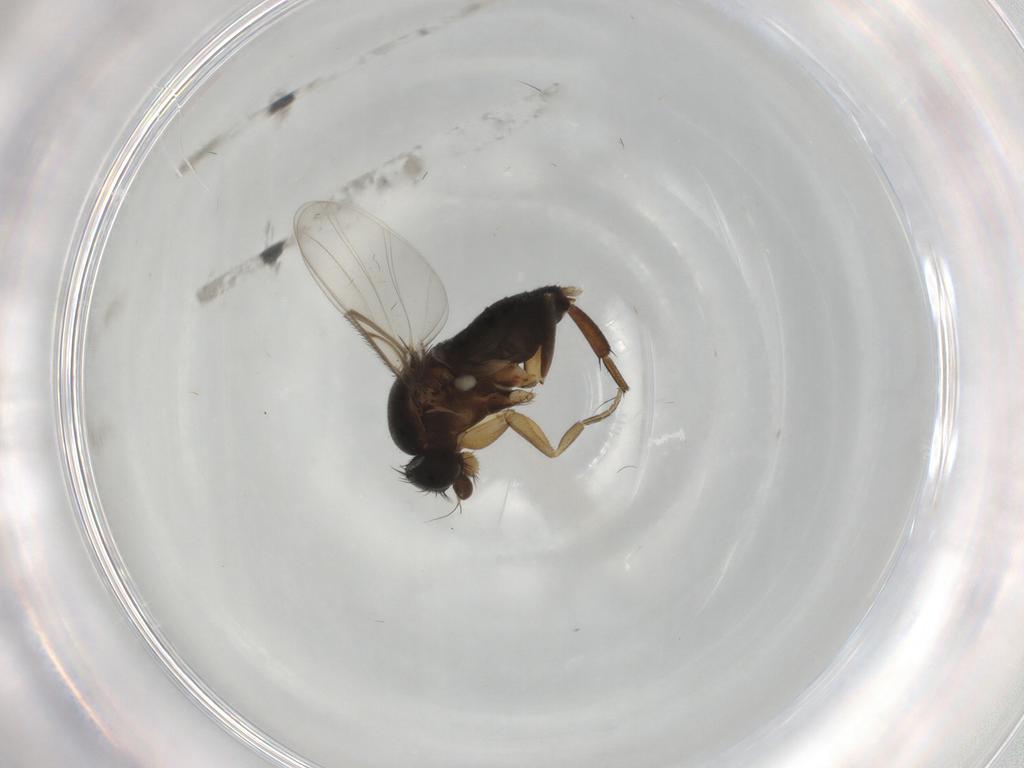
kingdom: Animalia
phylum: Arthropoda
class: Insecta
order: Diptera
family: Phoridae
